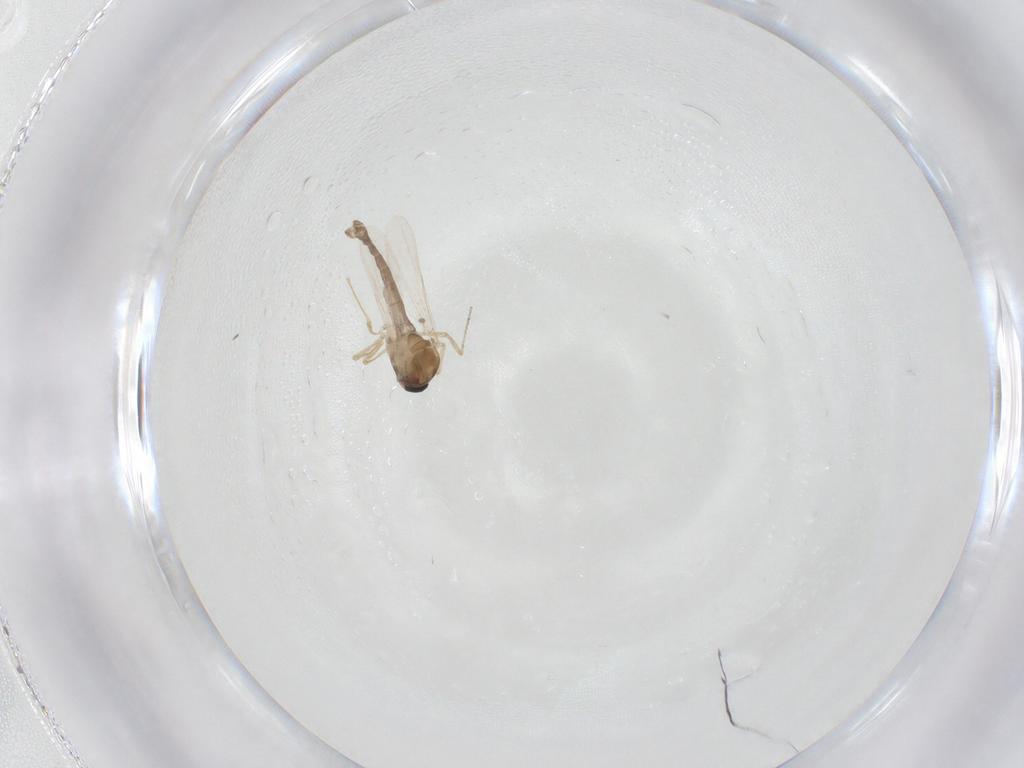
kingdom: Animalia
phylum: Arthropoda
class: Insecta
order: Diptera
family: Ceratopogonidae
